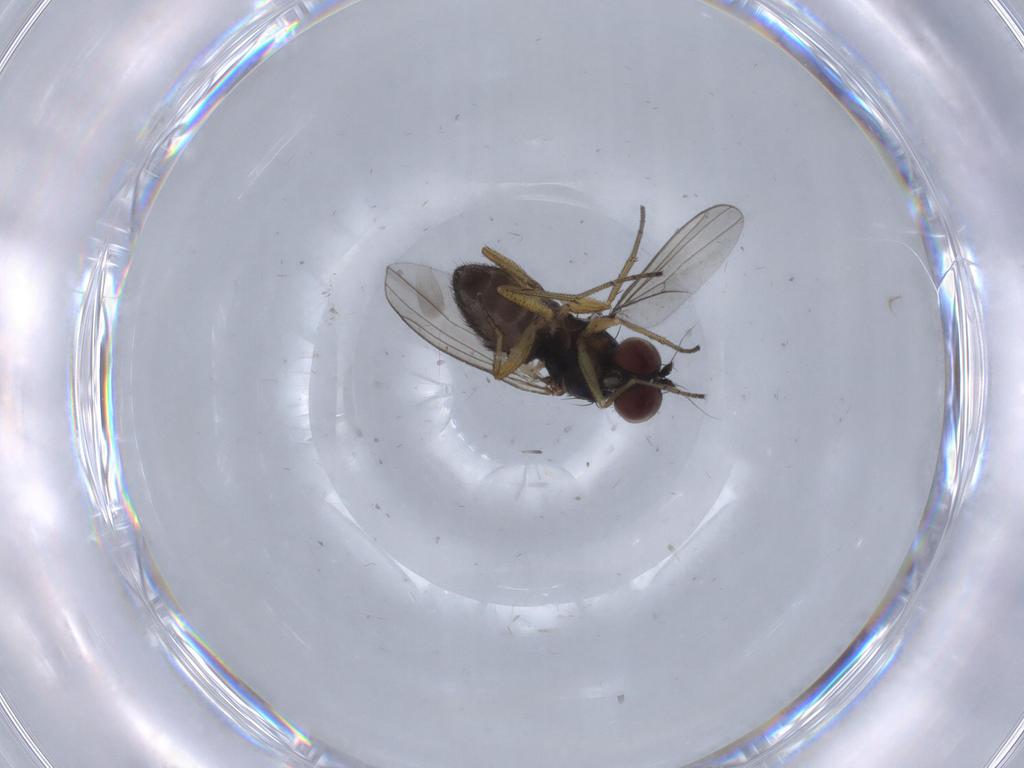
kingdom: Animalia
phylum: Arthropoda
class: Insecta
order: Diptera
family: Dolichopodidae
